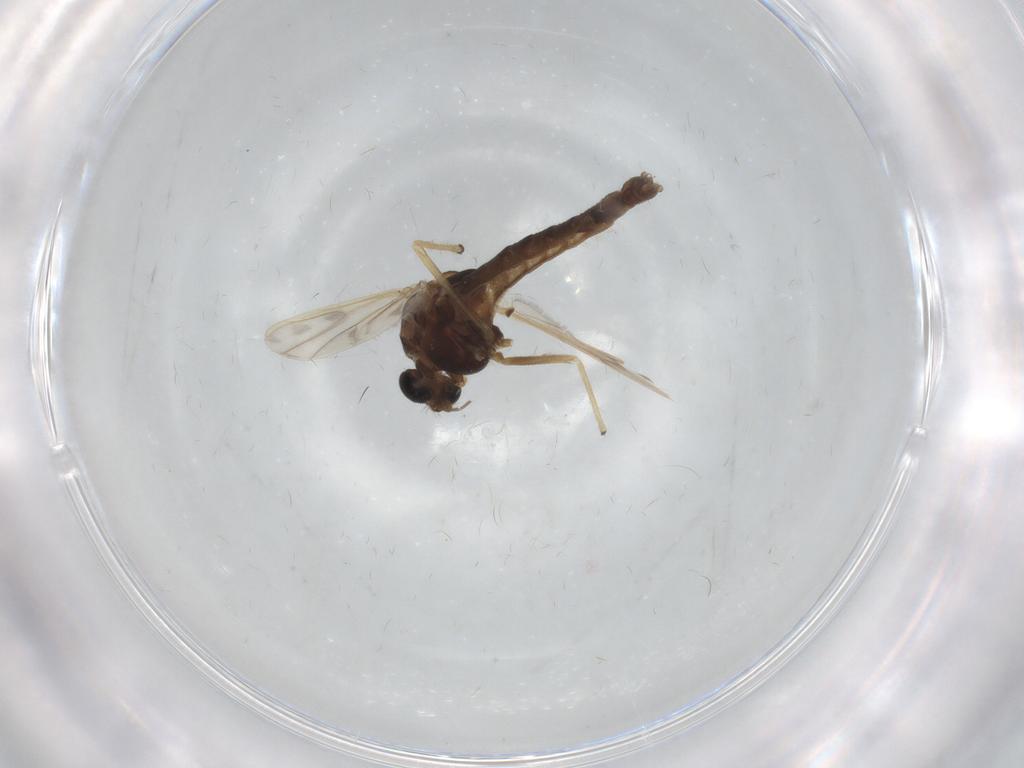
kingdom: Animalia
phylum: Arthropoda
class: Insecta
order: Diptera
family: Chironomidae
